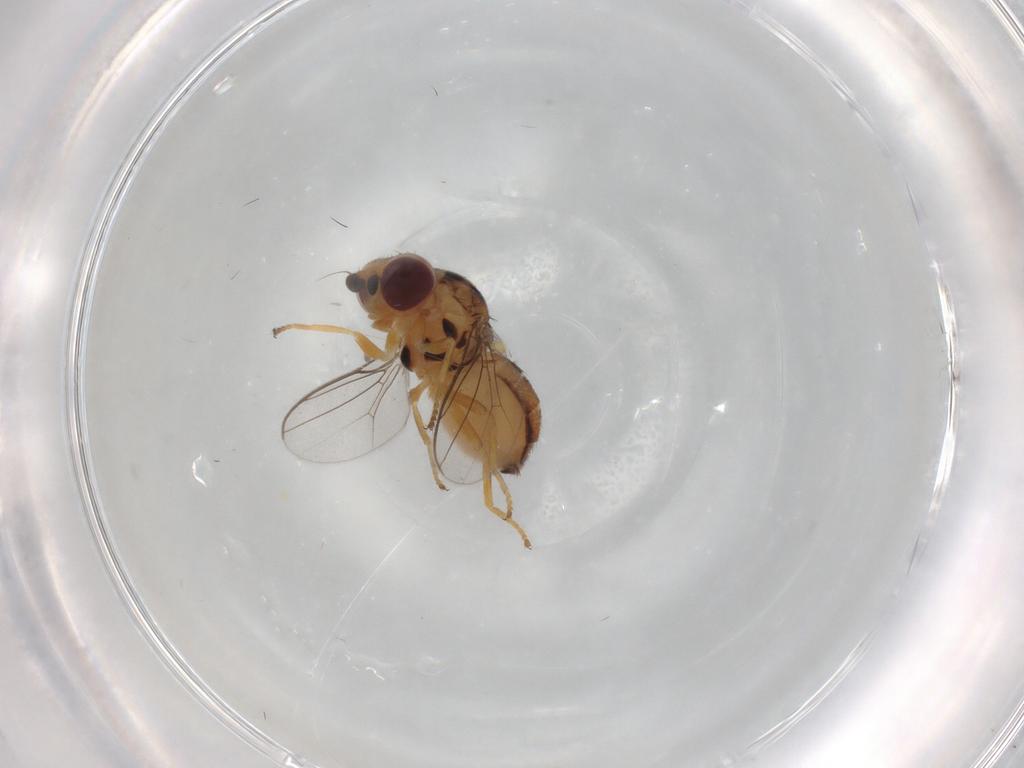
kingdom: Animalia
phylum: Arthropoda
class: Insecta
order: Diptera
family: Chloropidae
